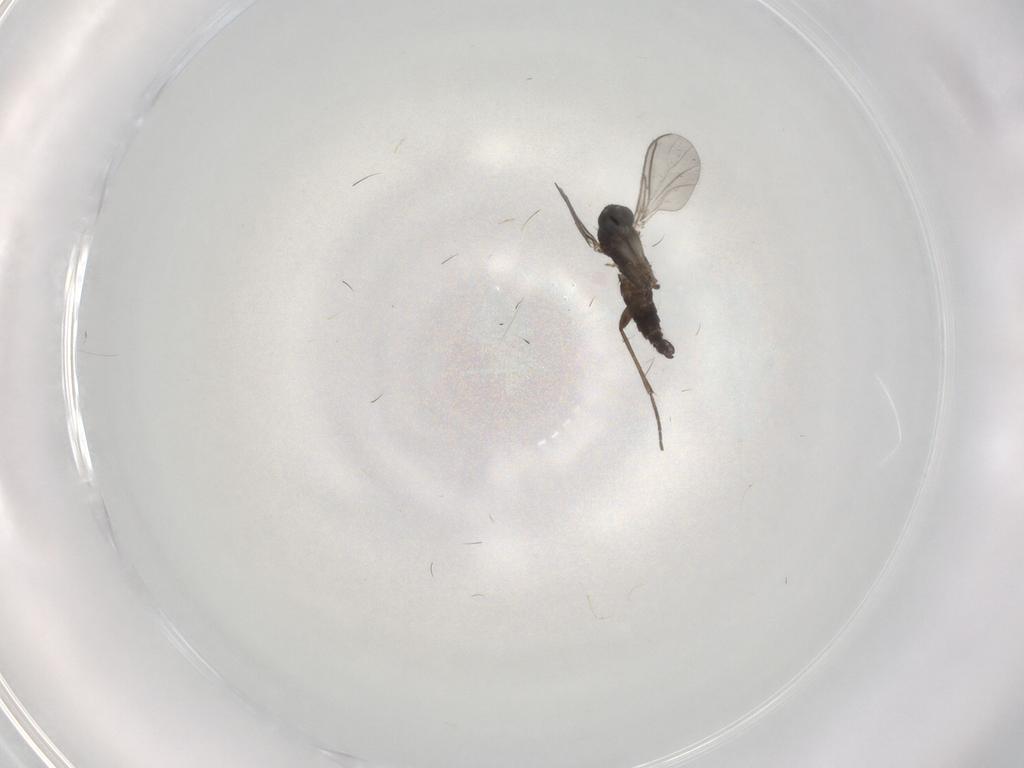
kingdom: Animalia
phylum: Arthropoda
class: Insecta
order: Diptera
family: Sciaridae
